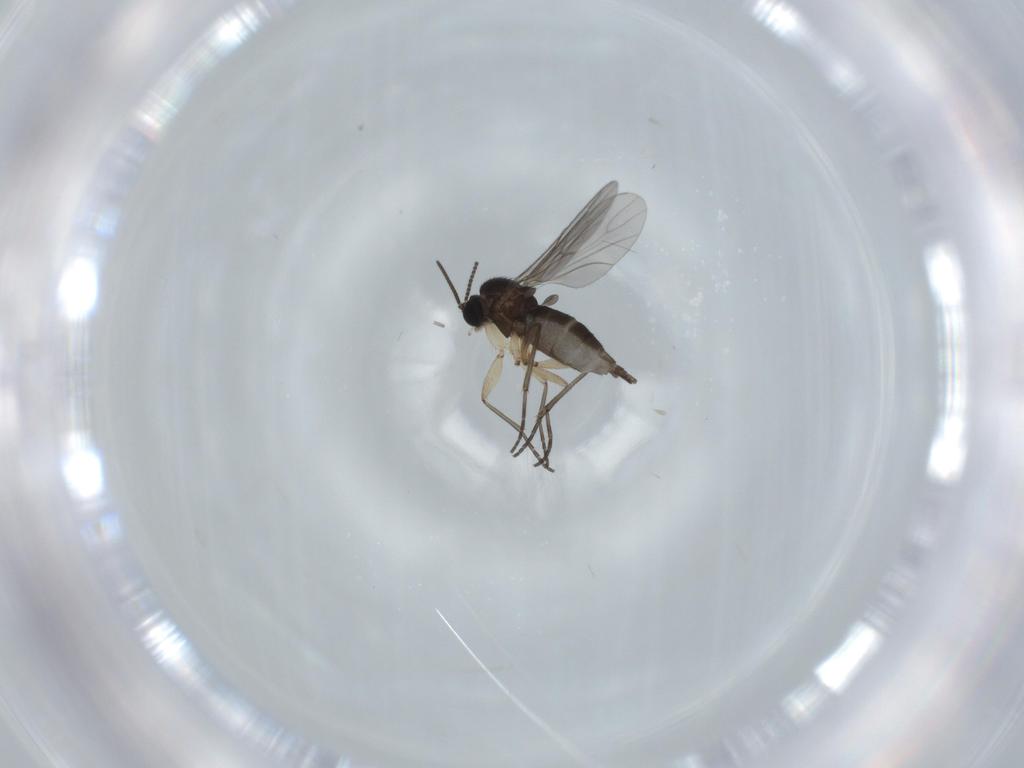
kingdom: Animalia
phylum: Arthropoda
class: Insecta
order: Diptera
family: Sciaridae
